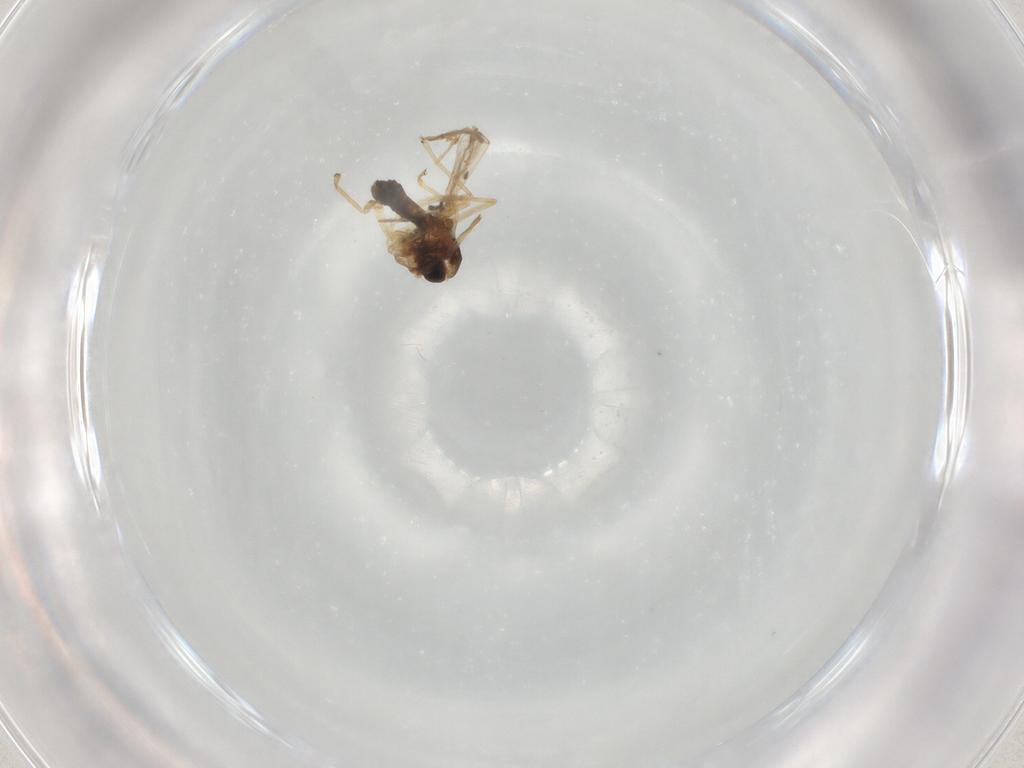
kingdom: Animalia
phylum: Arthropoda
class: Insecta
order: Diptera
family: Chironomidae
